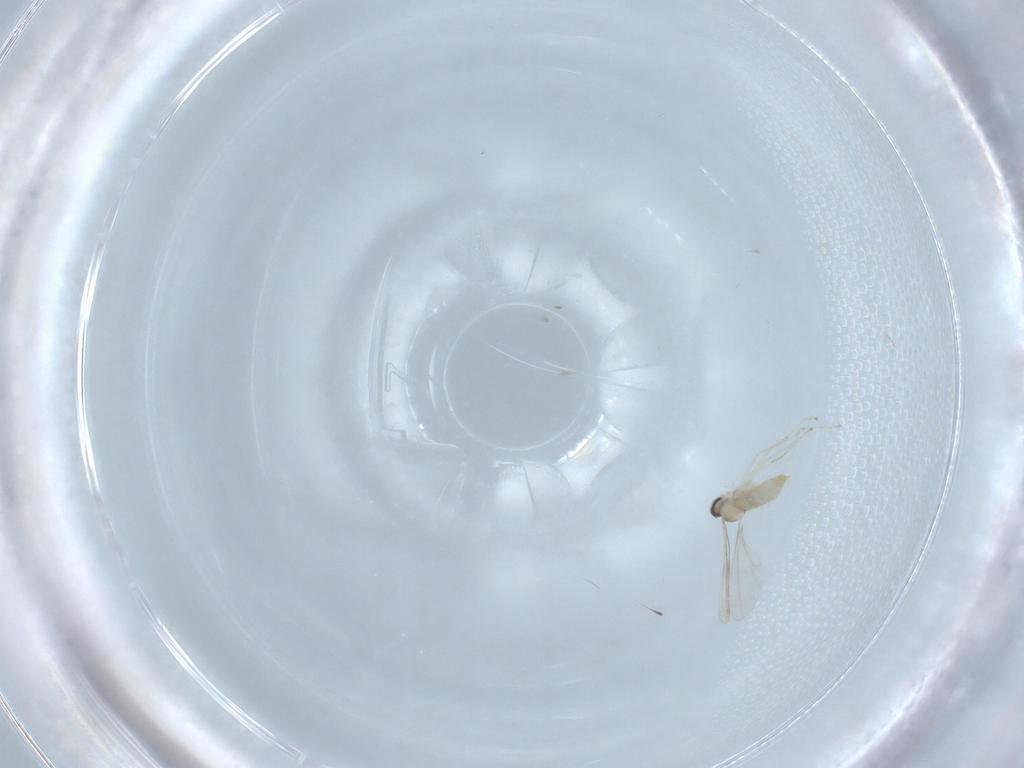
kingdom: Animalia
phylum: Arthropoda
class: Insecta
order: Diptera
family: Cecidomyiidae
